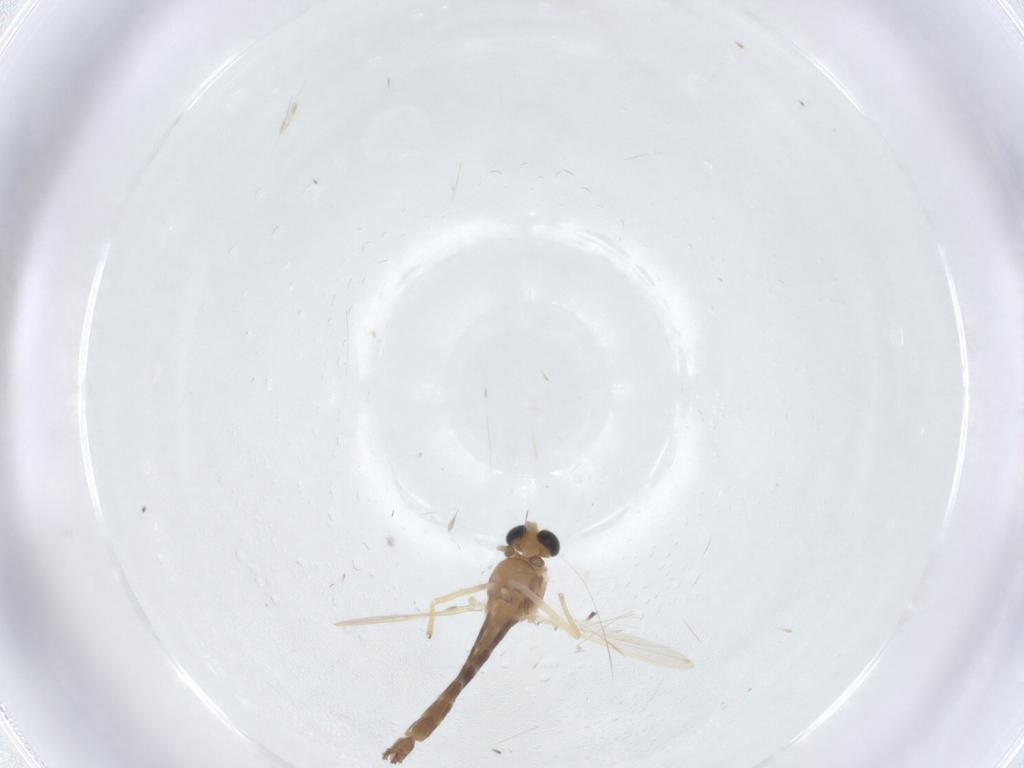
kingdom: Animalia
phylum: Arthropoda
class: Insecta
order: Diptera
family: Chironomidae
